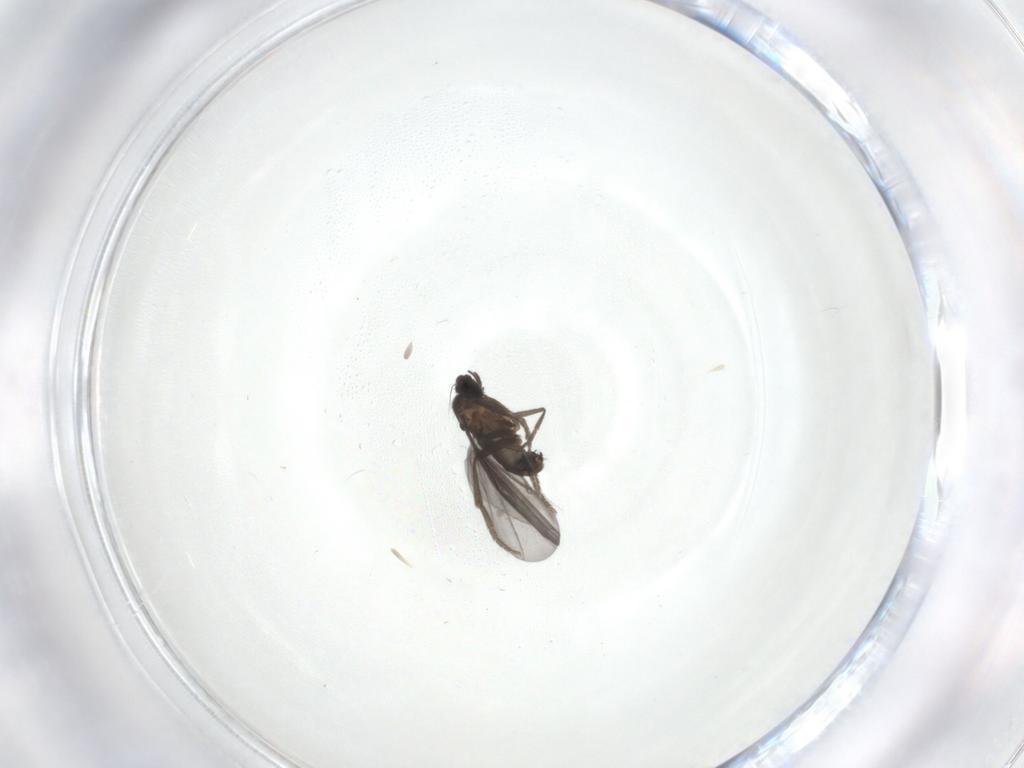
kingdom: Animalia
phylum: Arthropoda
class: Insecta
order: Diptera
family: Phoridae
